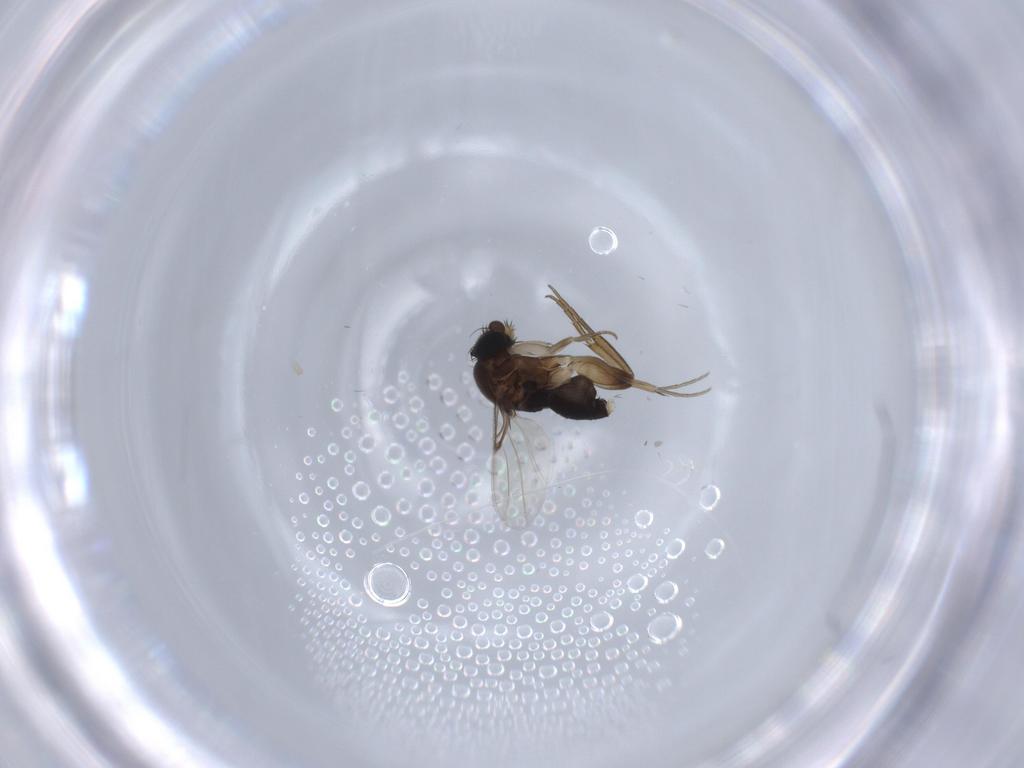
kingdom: Animalia
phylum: Arthropoda
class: Insecta
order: Diptera
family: Phoridae
